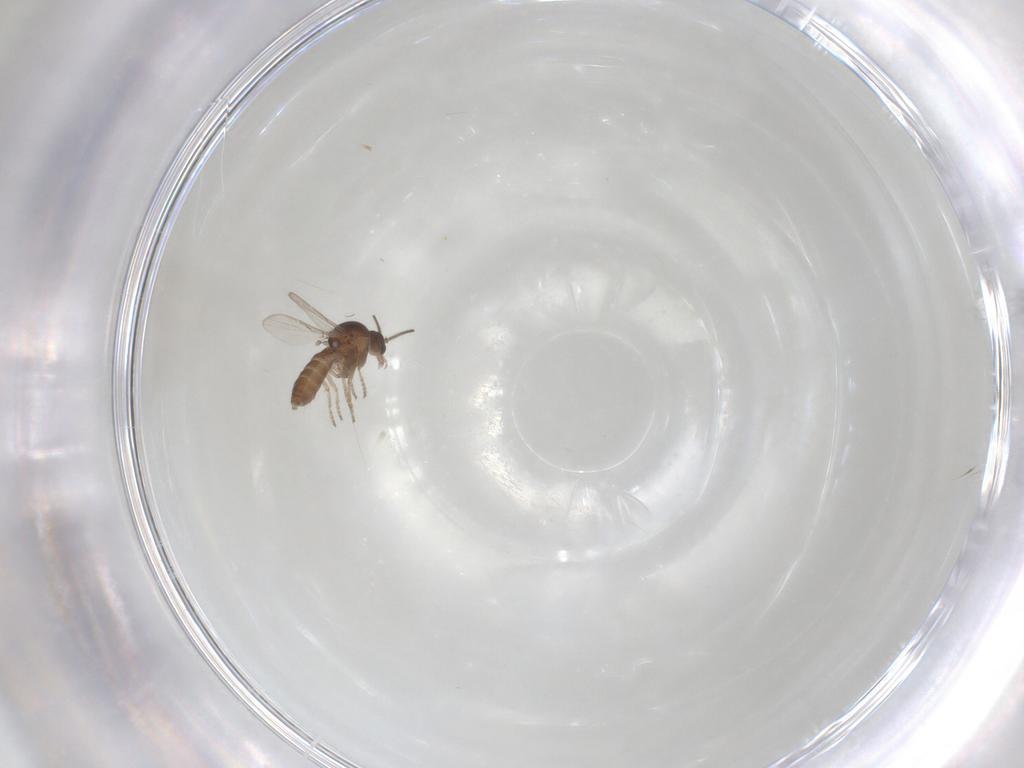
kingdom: Animalia
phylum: Arthropoda
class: Insecta
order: Diptera
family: Ceratopogonidae
